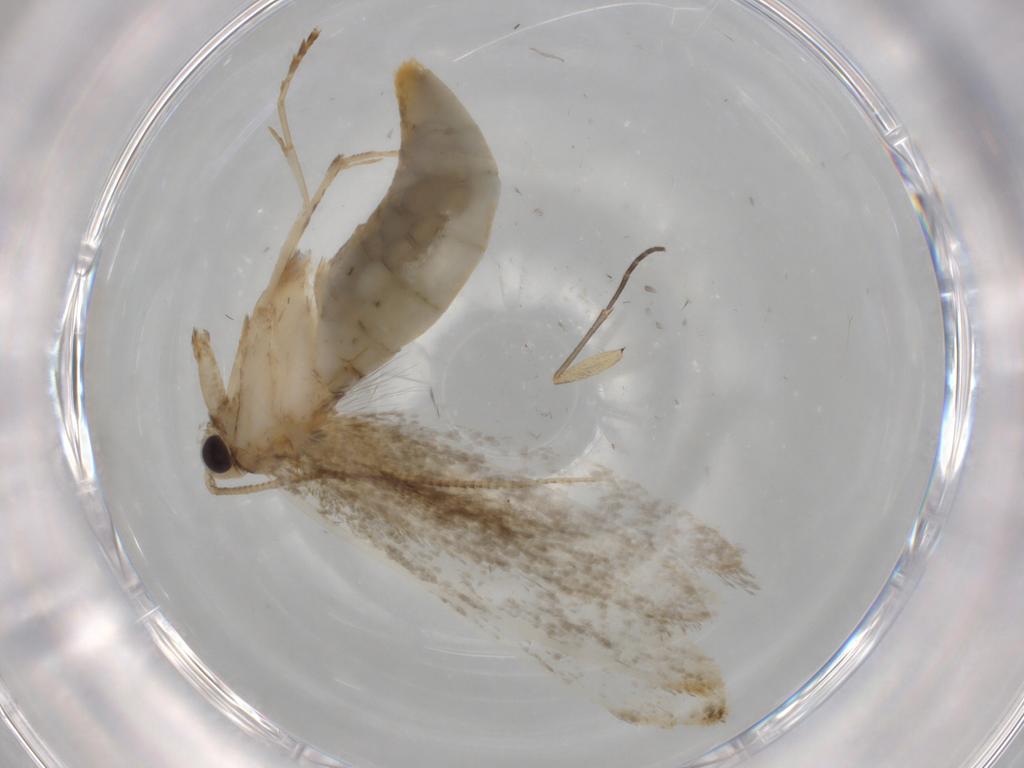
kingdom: Animalia
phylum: Arthropoda
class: Insecta
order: Lepidoptera
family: Tineidae
